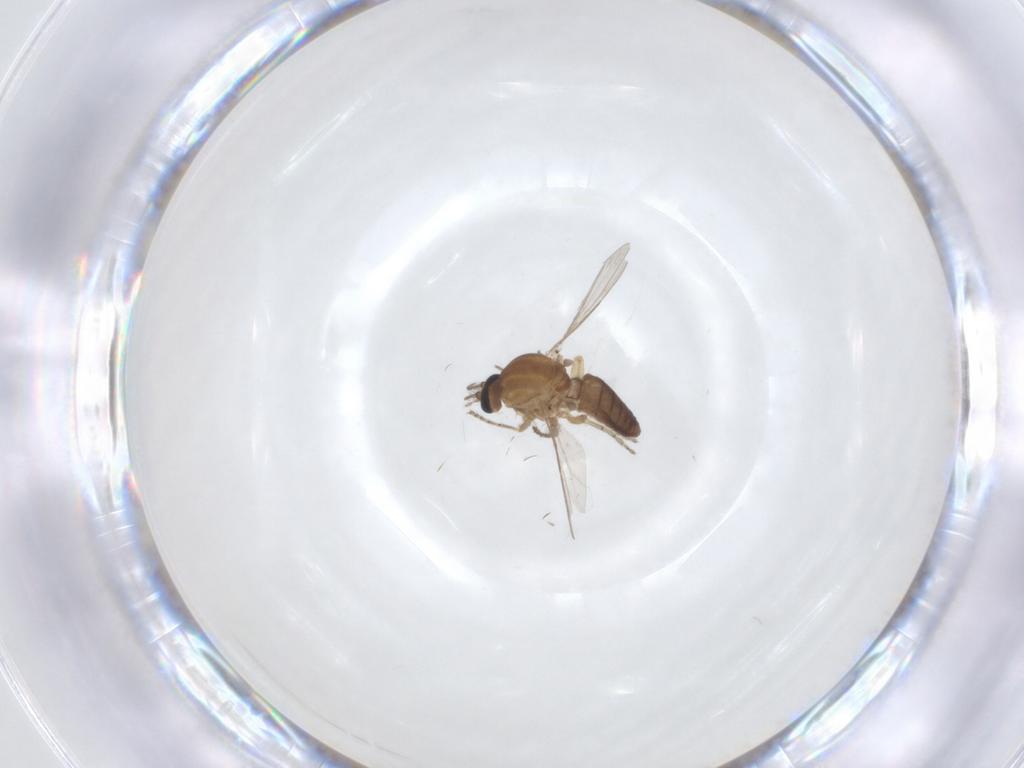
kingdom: Animalia
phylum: Arthropoda
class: Insecta
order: Diptera
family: Ceratopogonidae
